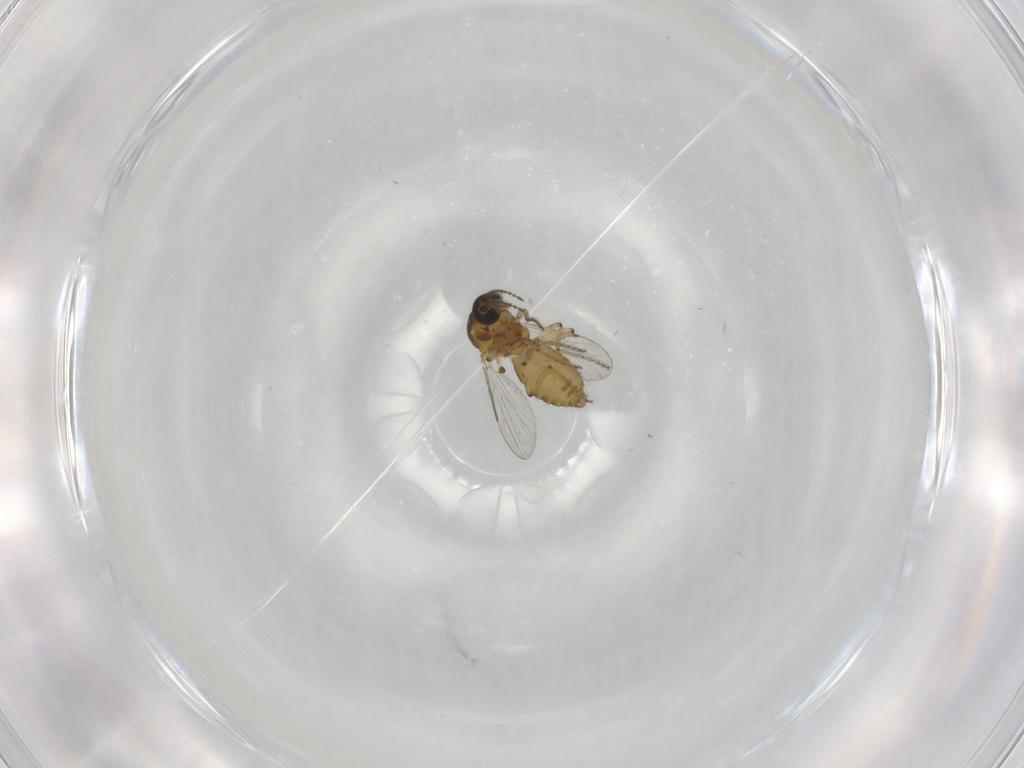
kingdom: Animalia
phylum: Arthropoda
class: Insecta
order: Diptera
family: Ceratopogonidae
